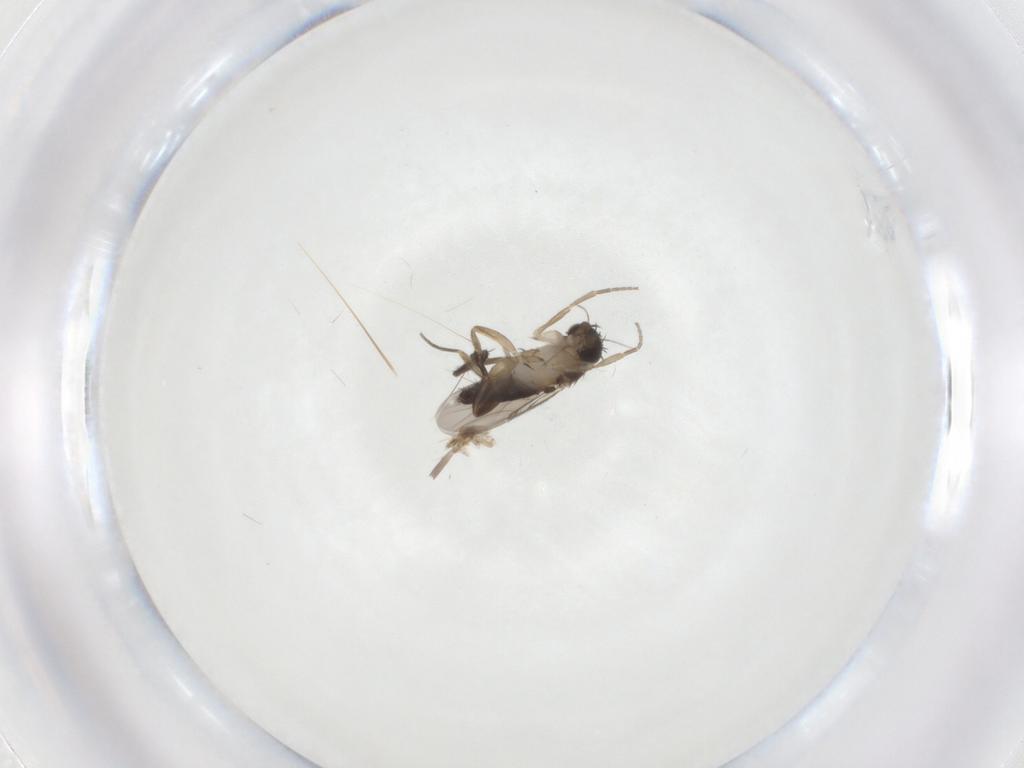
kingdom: Animalia
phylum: Arthropoda
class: Insecta
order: Diptera
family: Phoridae
